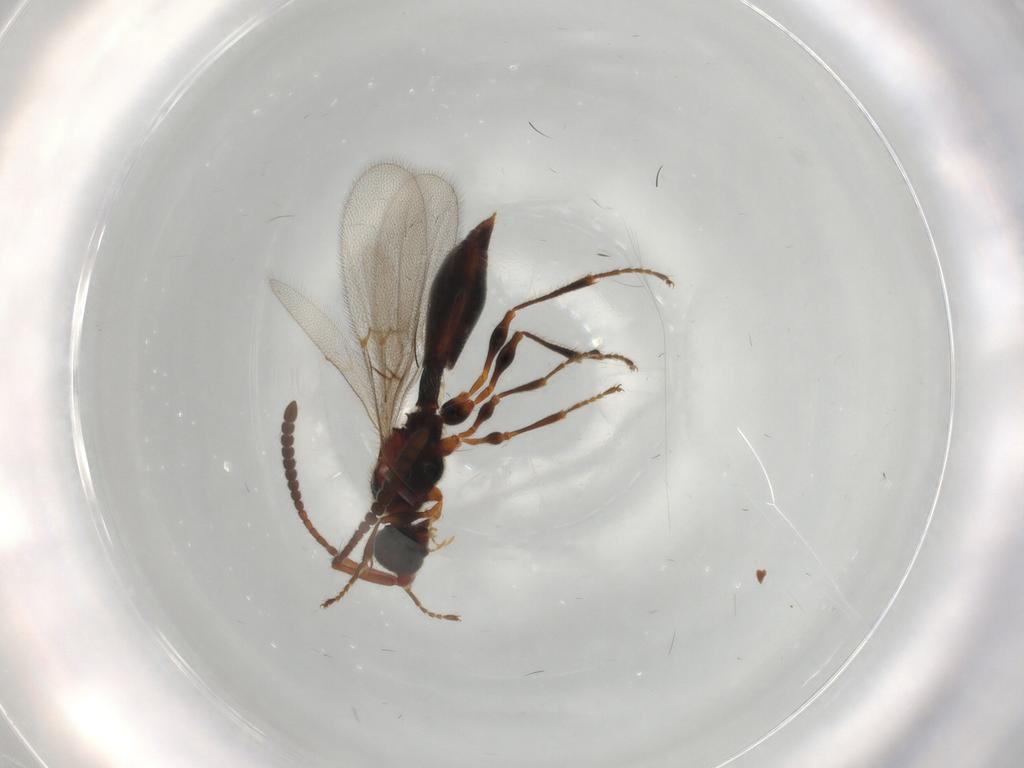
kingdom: Animalia
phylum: Arthropoda
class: Insecta
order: Hymenoptera
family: Diapriidae
